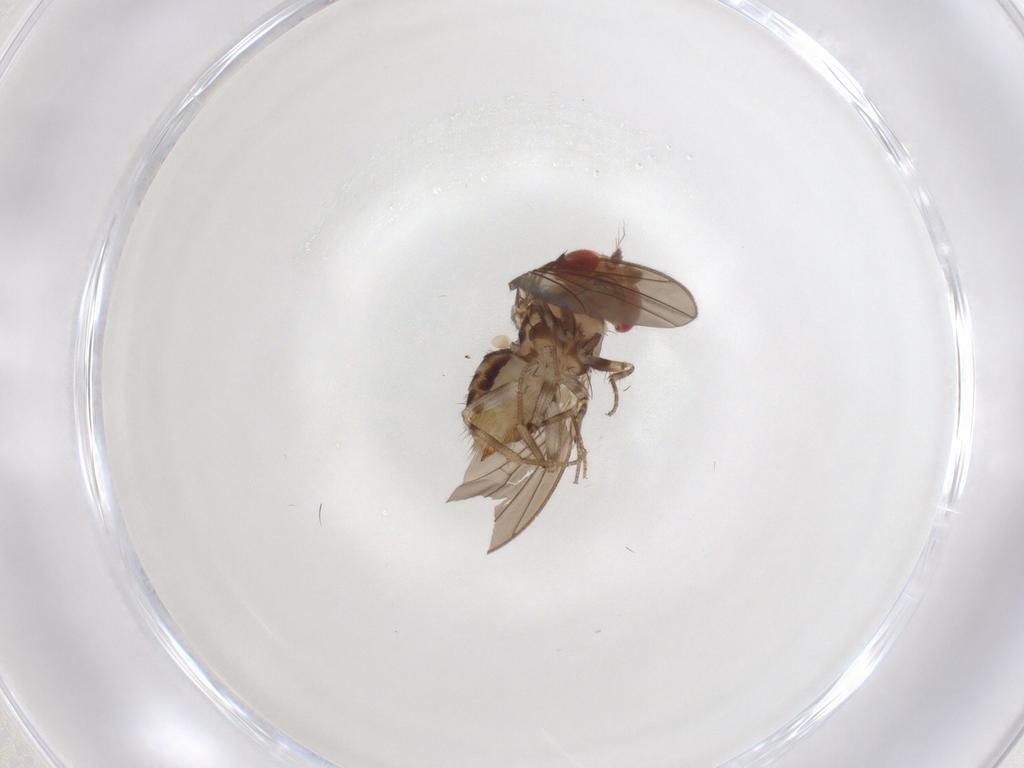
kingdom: Animalia
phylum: Arthropoda
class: Insecta
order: Diptera
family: Drosophilidae
